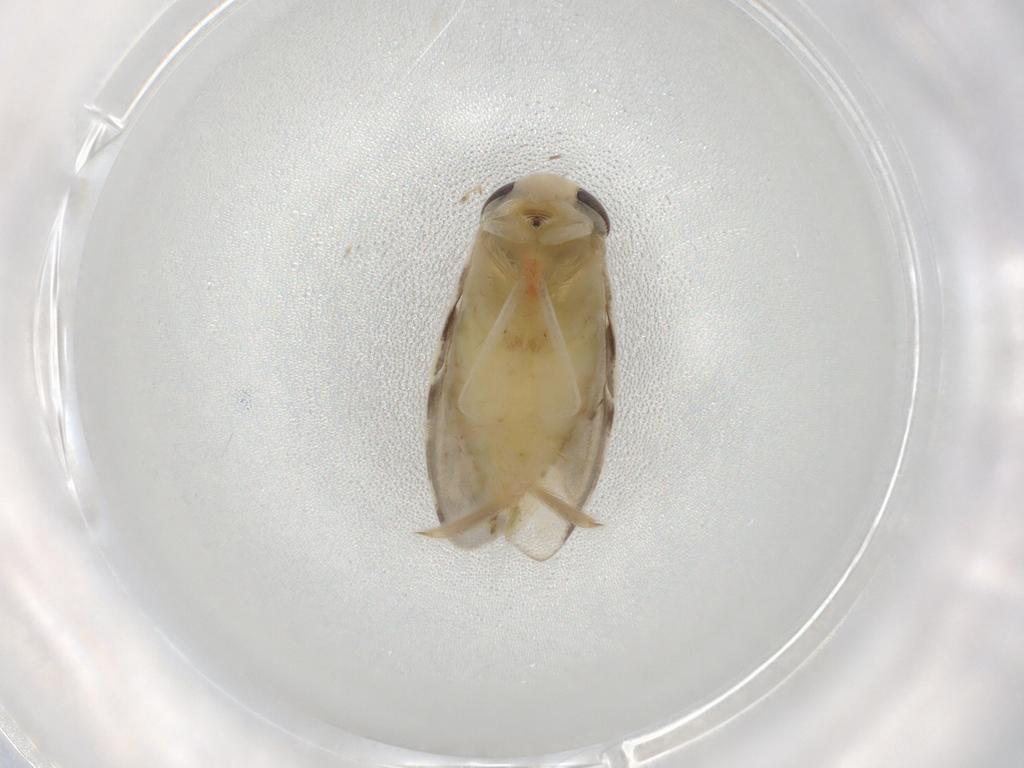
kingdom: Animalia
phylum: Arthropoda
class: Insecta
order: Hemiptera
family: Corixidae
